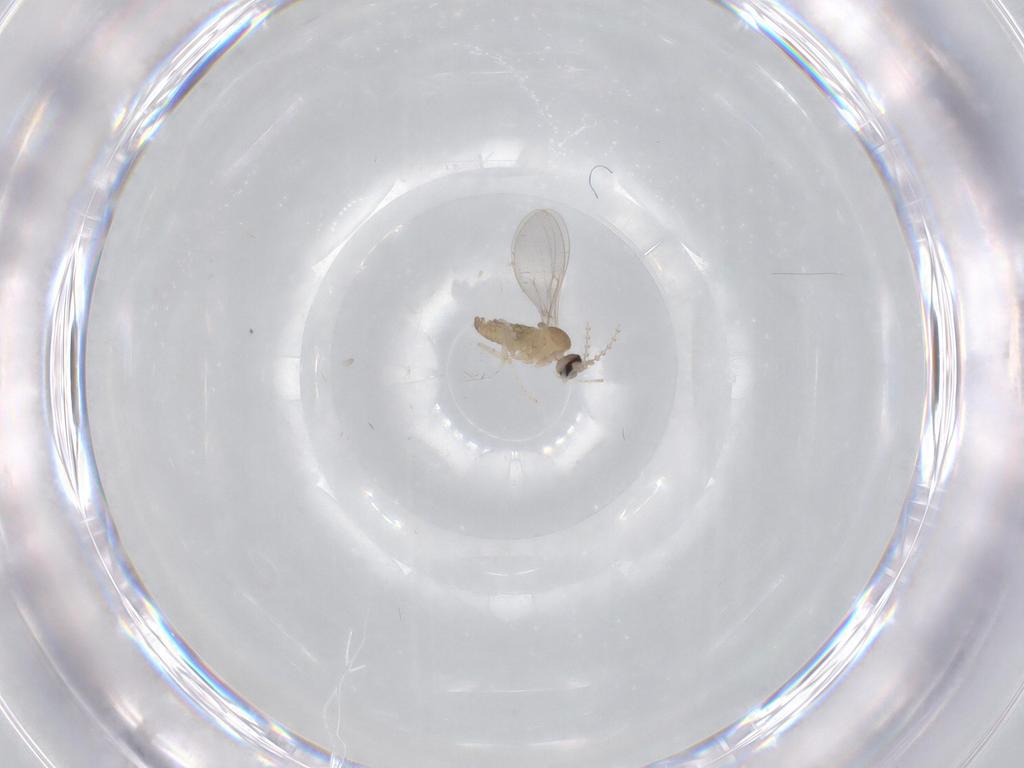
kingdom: Animalia
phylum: Arthropoda
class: Insecta
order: Diptera
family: Cecidomyiidae
